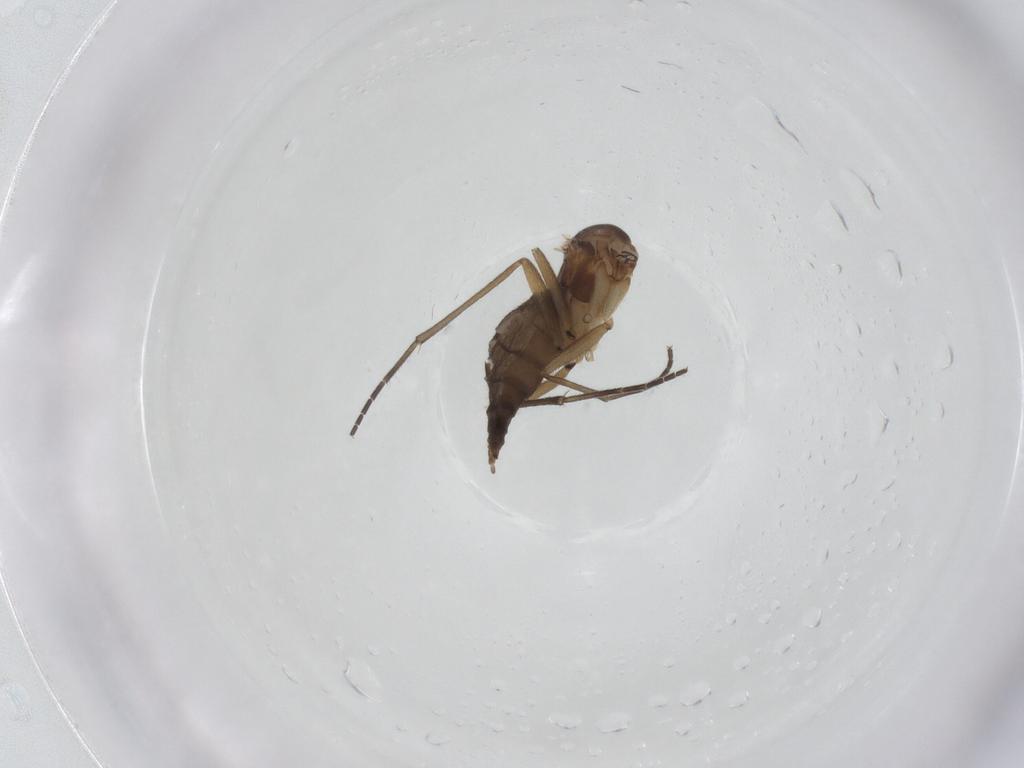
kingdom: Animalia
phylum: Arthropoda
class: Insecta
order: Diptera
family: Sciaridae
